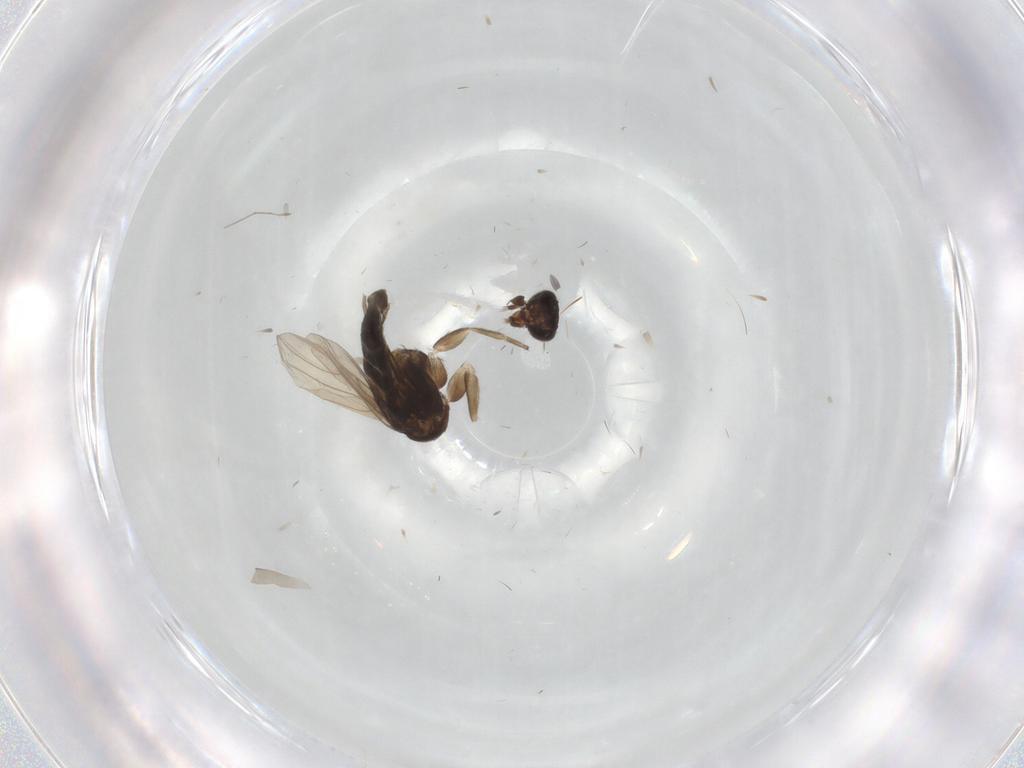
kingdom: Animalia
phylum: Arthropoda
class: Insecta
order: Diptera
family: Phoridae
